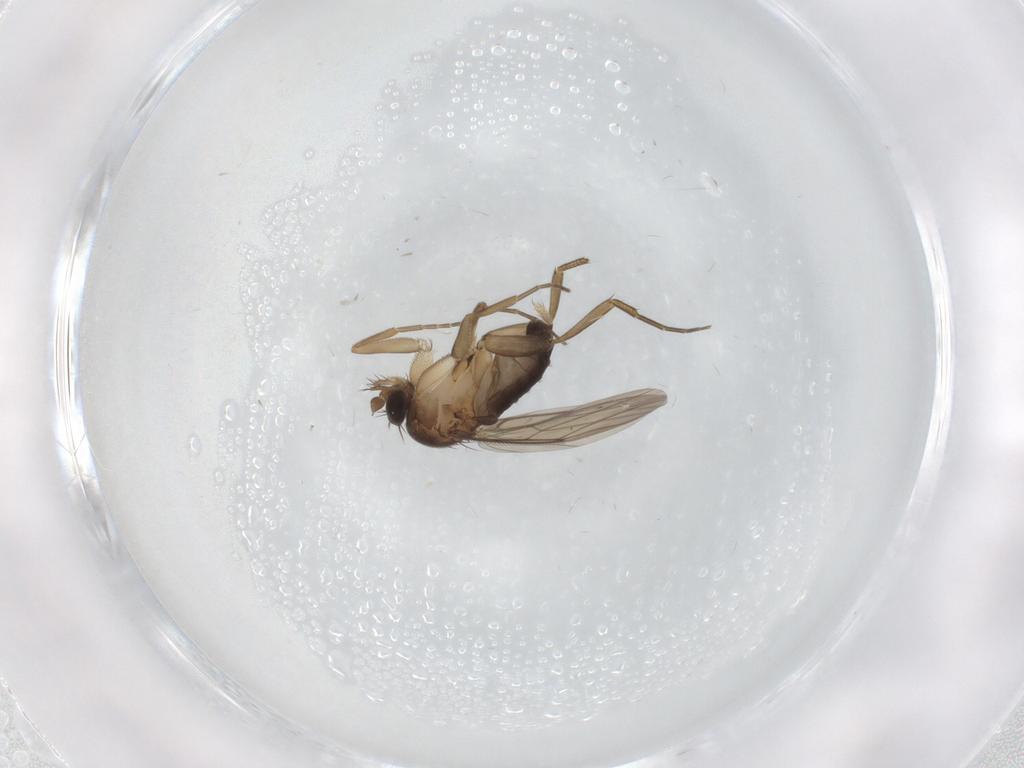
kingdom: Animalia
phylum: Arthropoda
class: Insecta
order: Diptera
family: Phoridae
